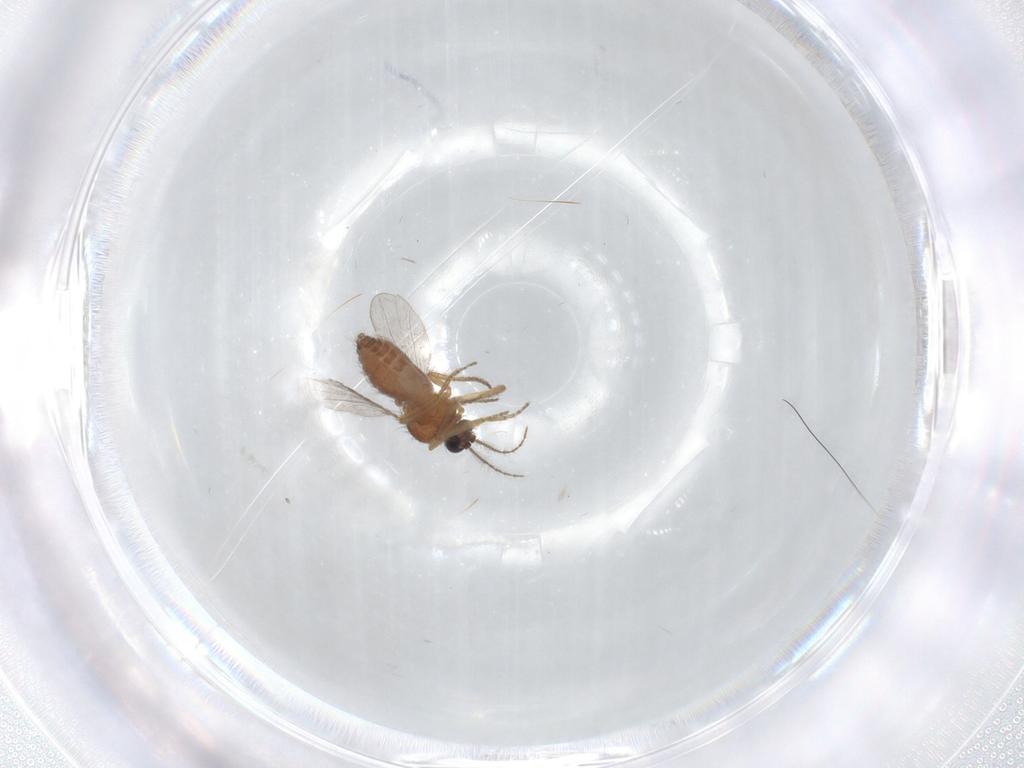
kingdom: Animalia
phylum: Arthropoda
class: Insecta
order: Diptera
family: Ceratopogonidae
